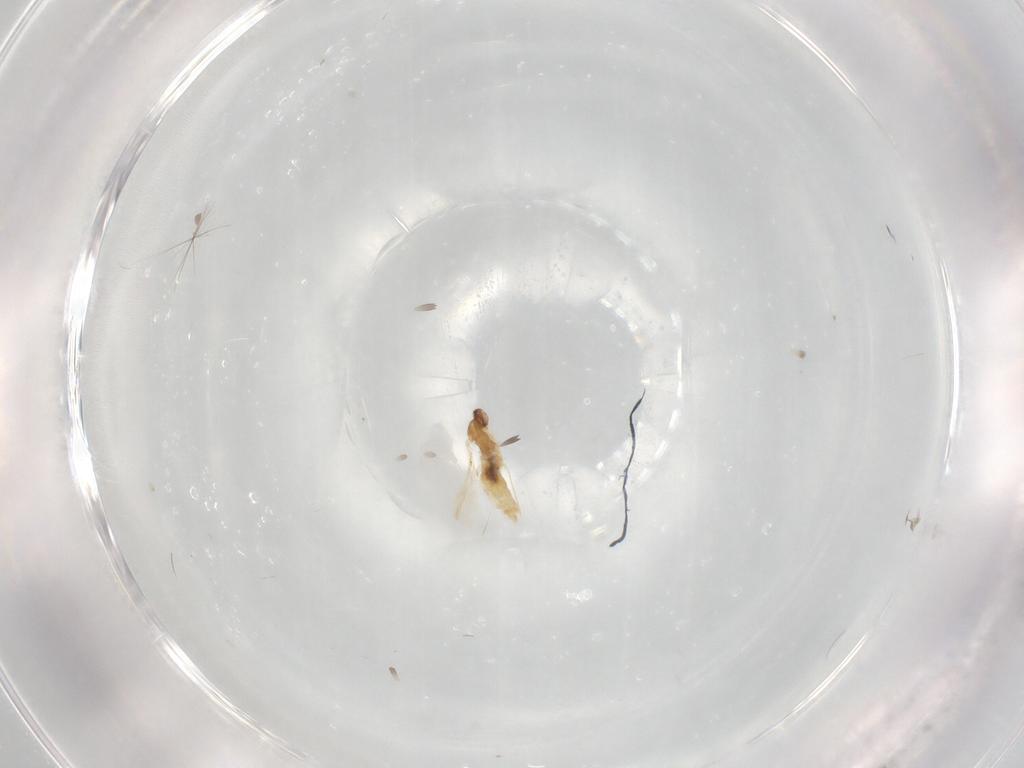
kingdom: Animalia
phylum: Arthropoda
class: Insecta
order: Diptera
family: Cecidomyiidae
